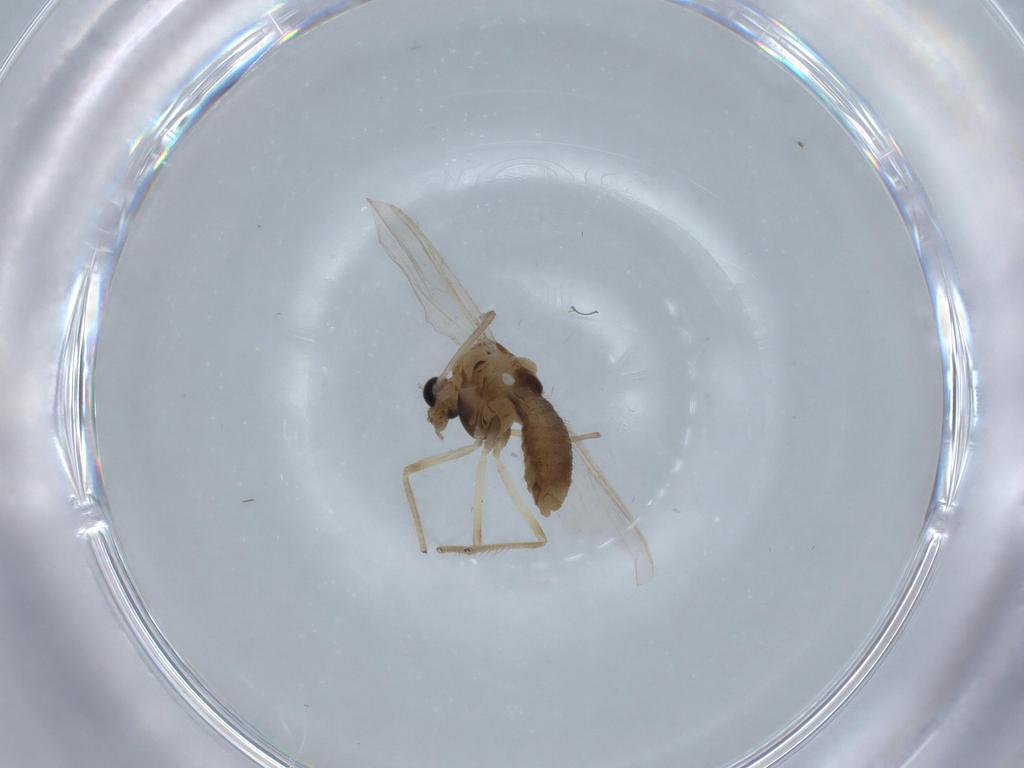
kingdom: Animalia
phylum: Arthropoda
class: Insecta
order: Diptera
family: Chironomidae
